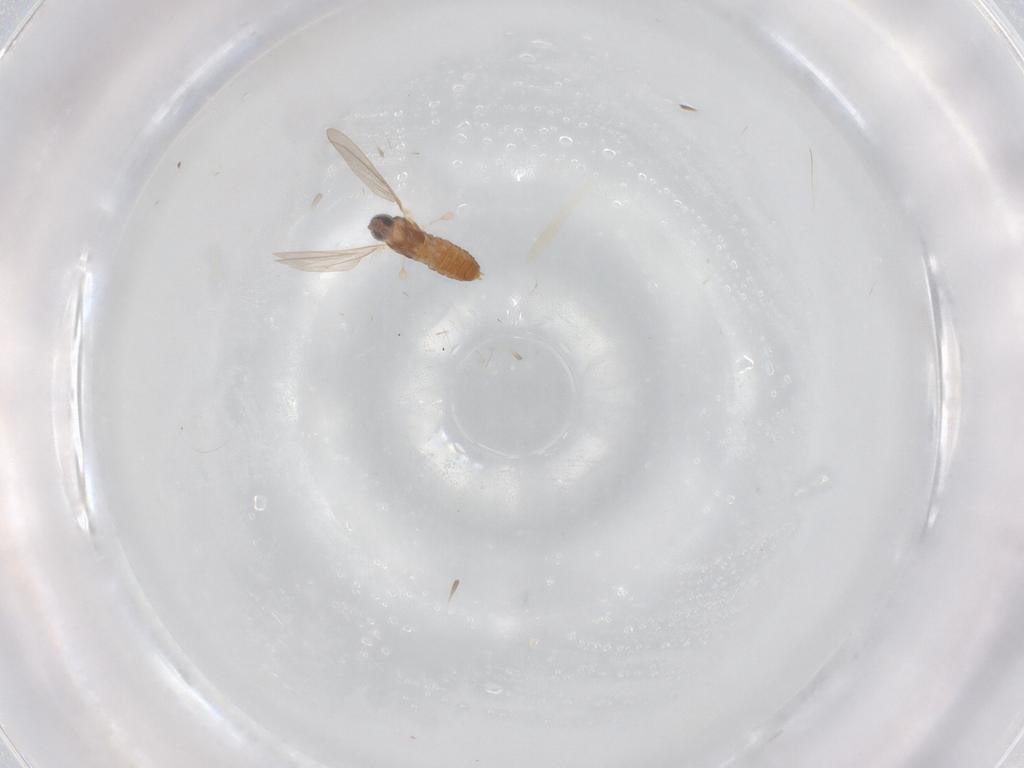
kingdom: Animalia
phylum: Arthropoda
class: Insecta
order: Diptera
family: Cecidomyiidae
